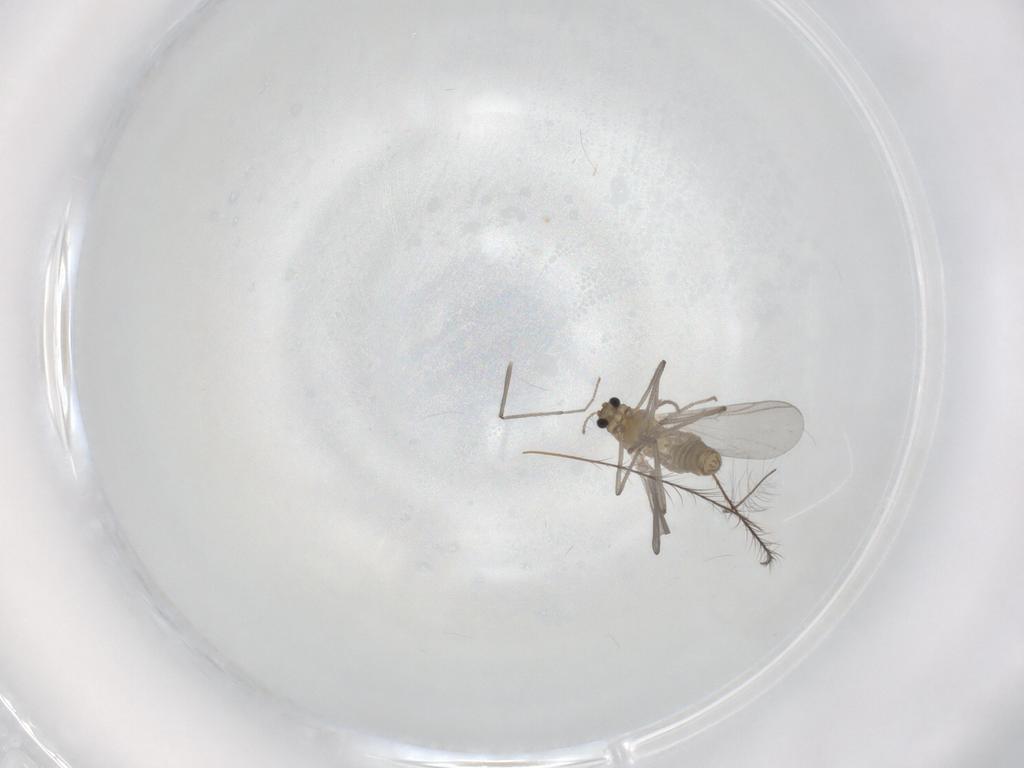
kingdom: Animalia
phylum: Arthropoda
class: Insecta
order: Diptera
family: Chironomidae
